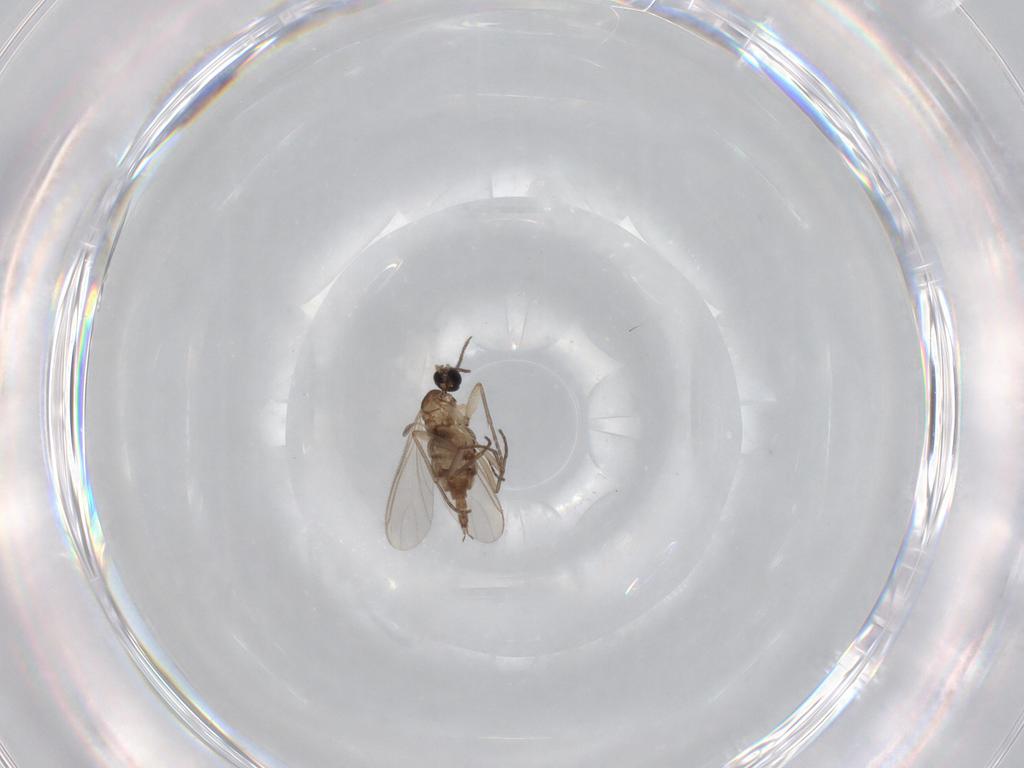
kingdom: Animalia
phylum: Arthropoda
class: Insecta
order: Diptera
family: Sciaridae
